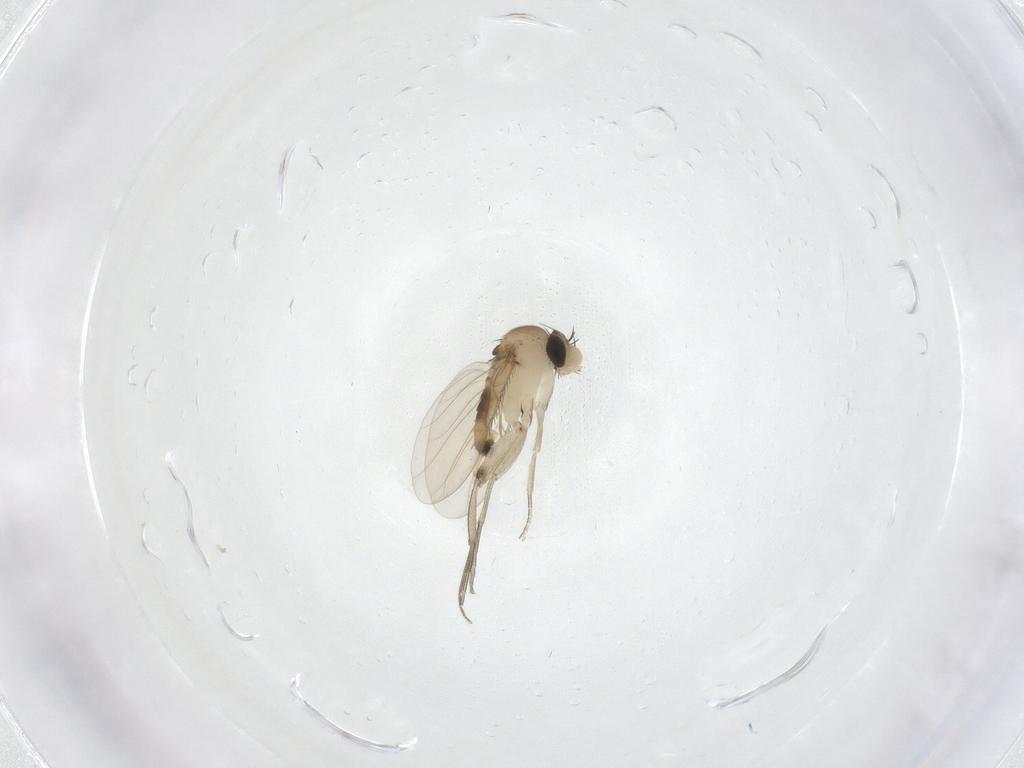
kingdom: Animalia
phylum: Arthropoda
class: Insecta
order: Diptera
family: Phoridae
